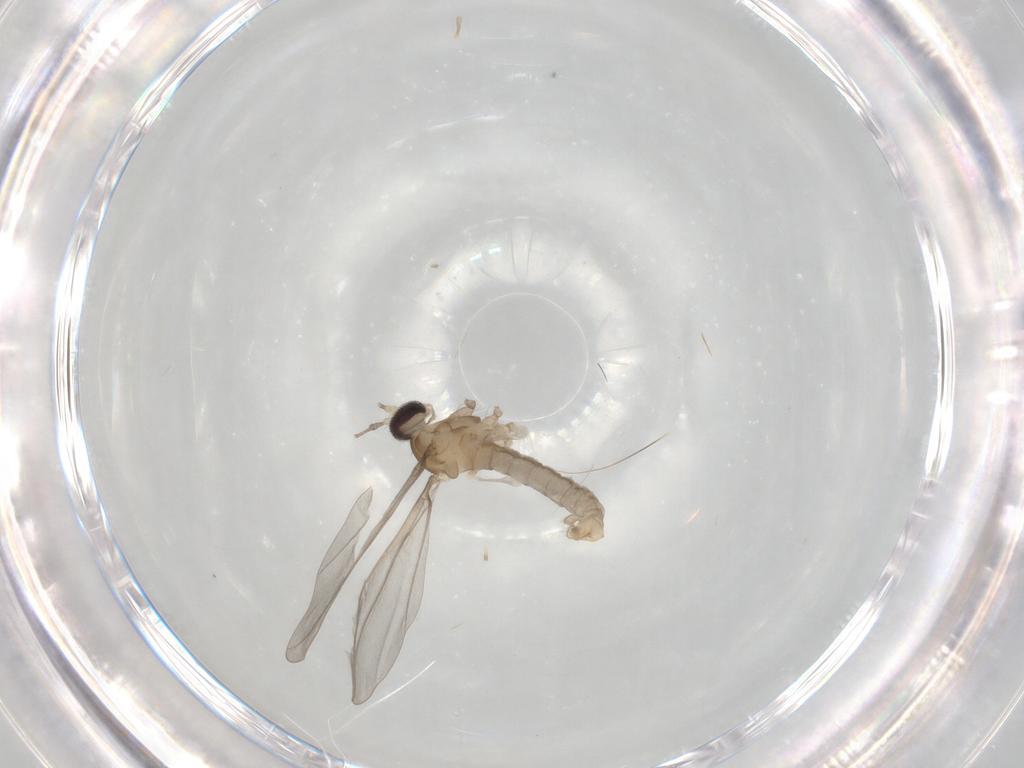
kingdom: Animalia
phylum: Arthropoda
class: Insecta
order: Diptera
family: Cecidomyiidae
